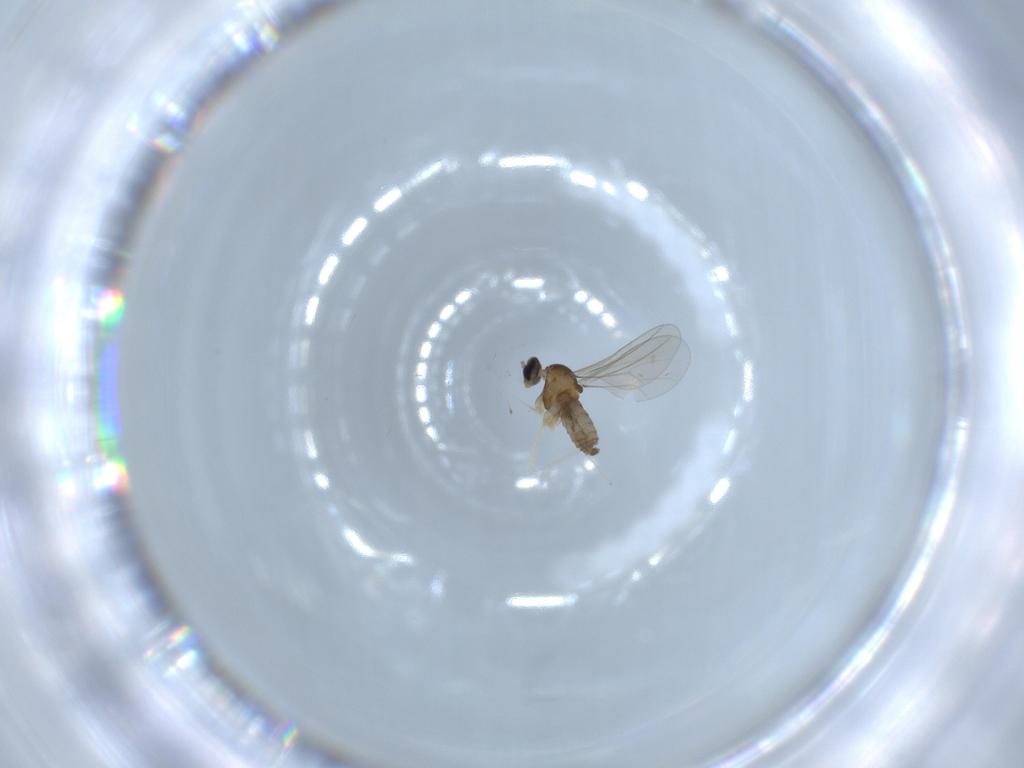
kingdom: Animalia
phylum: Arthropoda
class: Insecta
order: Diptera
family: Cecidomyiidae
